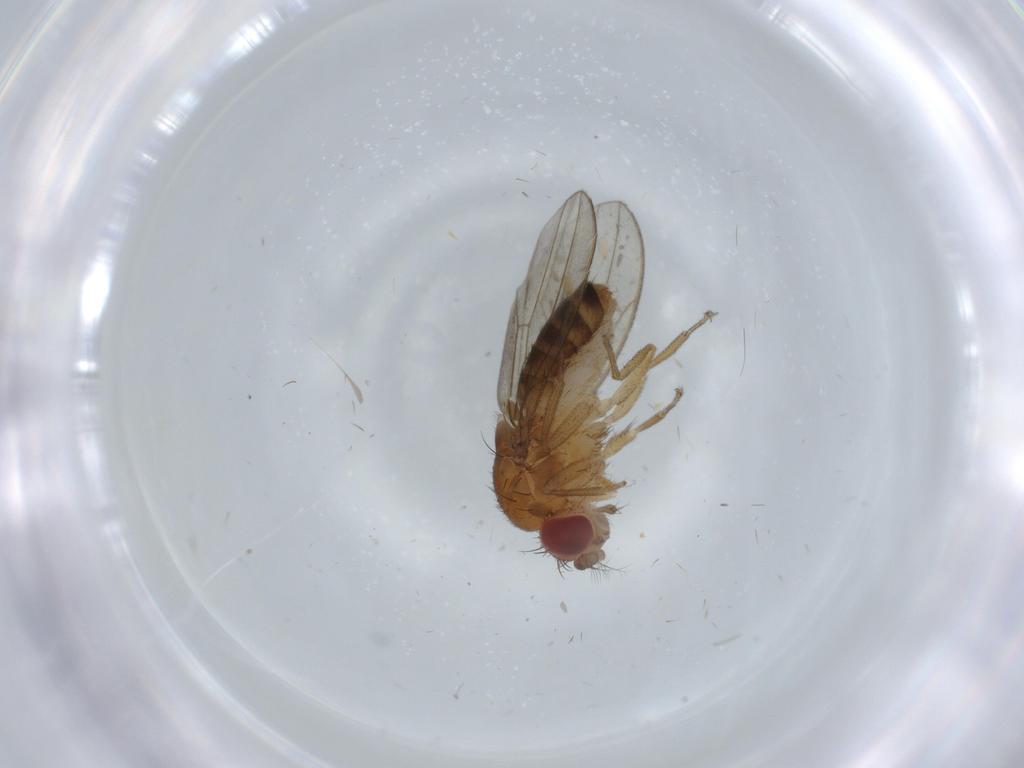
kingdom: Animalia
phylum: Arthropoda
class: Insecta
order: Diptera
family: Drosophilidae
